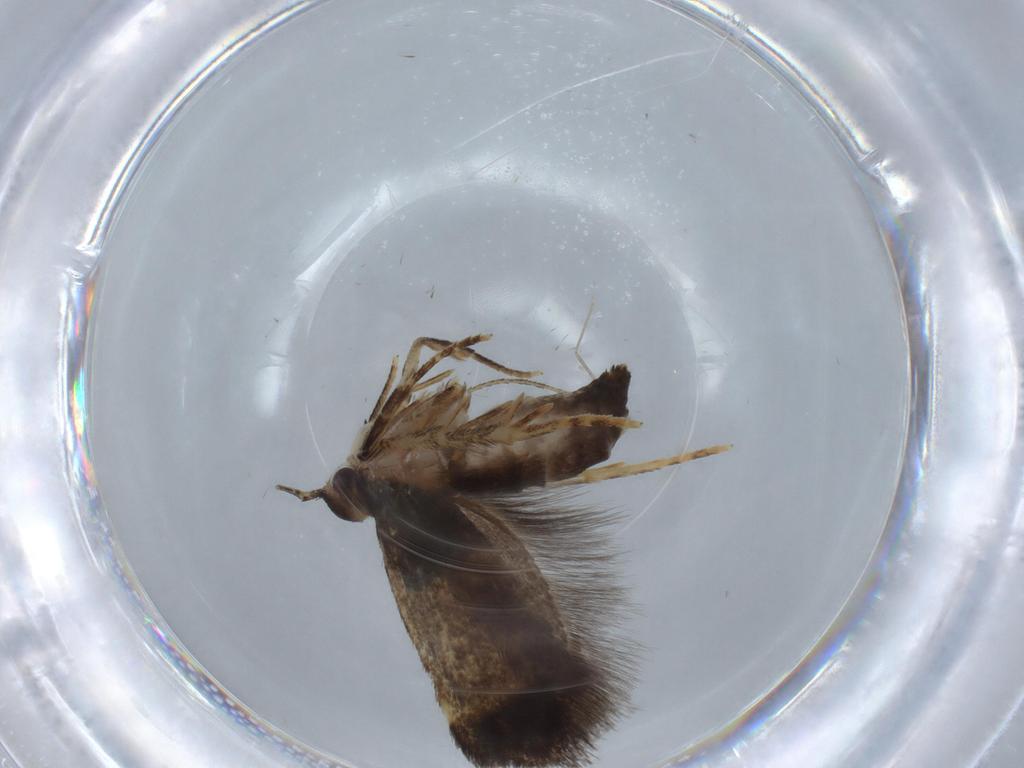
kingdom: Animalia
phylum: Arthropoda
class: Insecta
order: Lepidoptera
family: Cosmopterigidae
